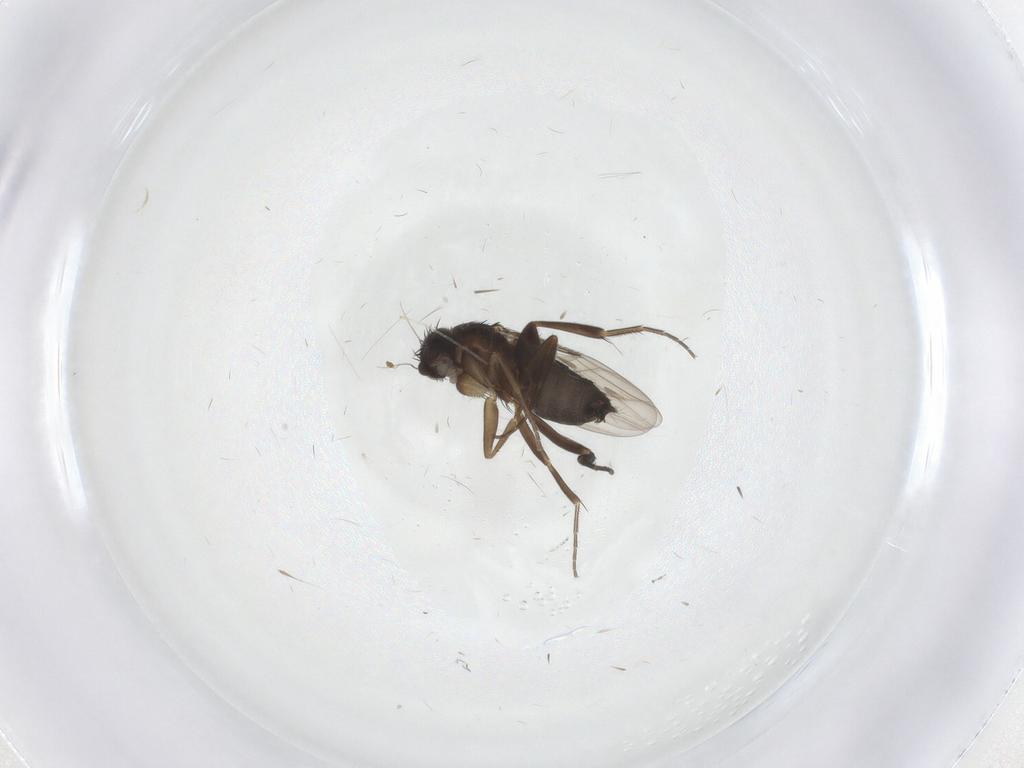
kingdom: Animalia
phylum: Arthropoda
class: Insecta
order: Diptera
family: Phoridae
